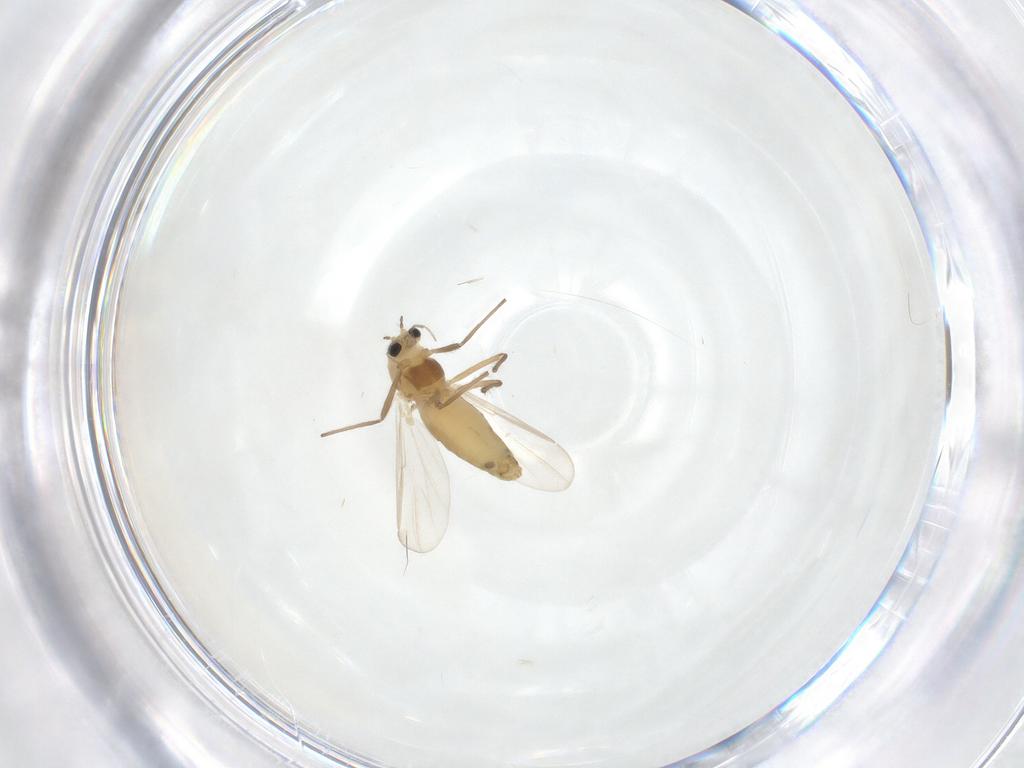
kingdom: Animalia
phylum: Arthropoda
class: Insecta
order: Diptera
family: Chironomidae
